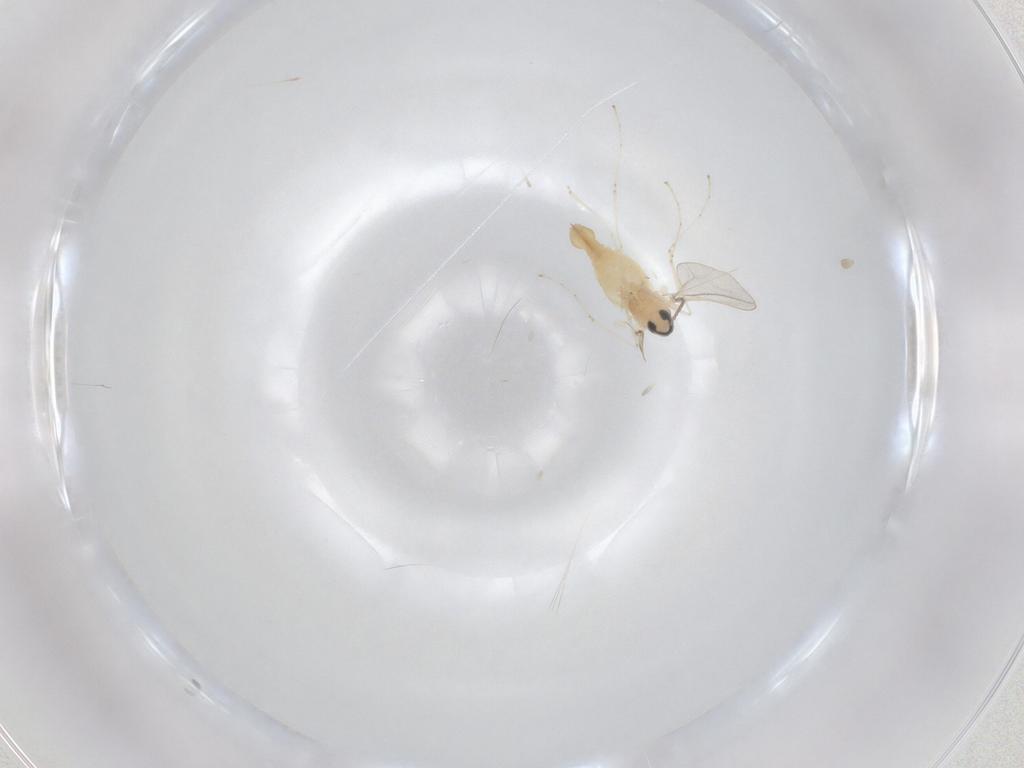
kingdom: Animalia
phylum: Arthropoda
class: Insecta
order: Diptera
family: Cecidomyiidae
